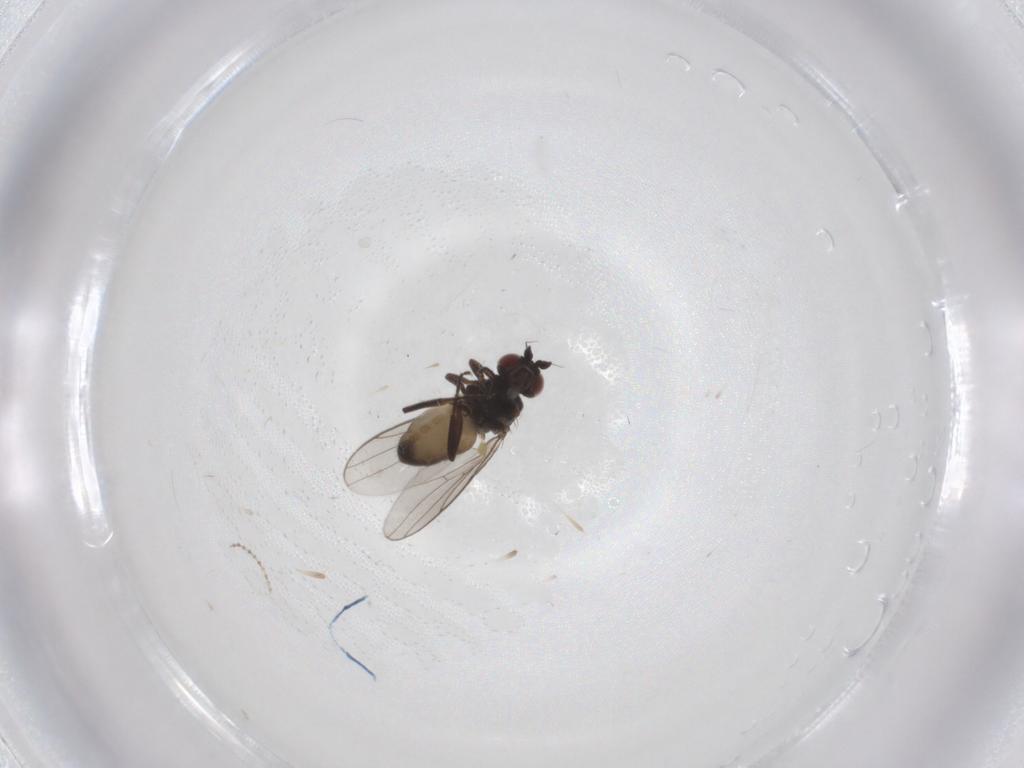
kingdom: Animalia
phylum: Arthropoda
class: Insecta
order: Diptera
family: Chloropidae
